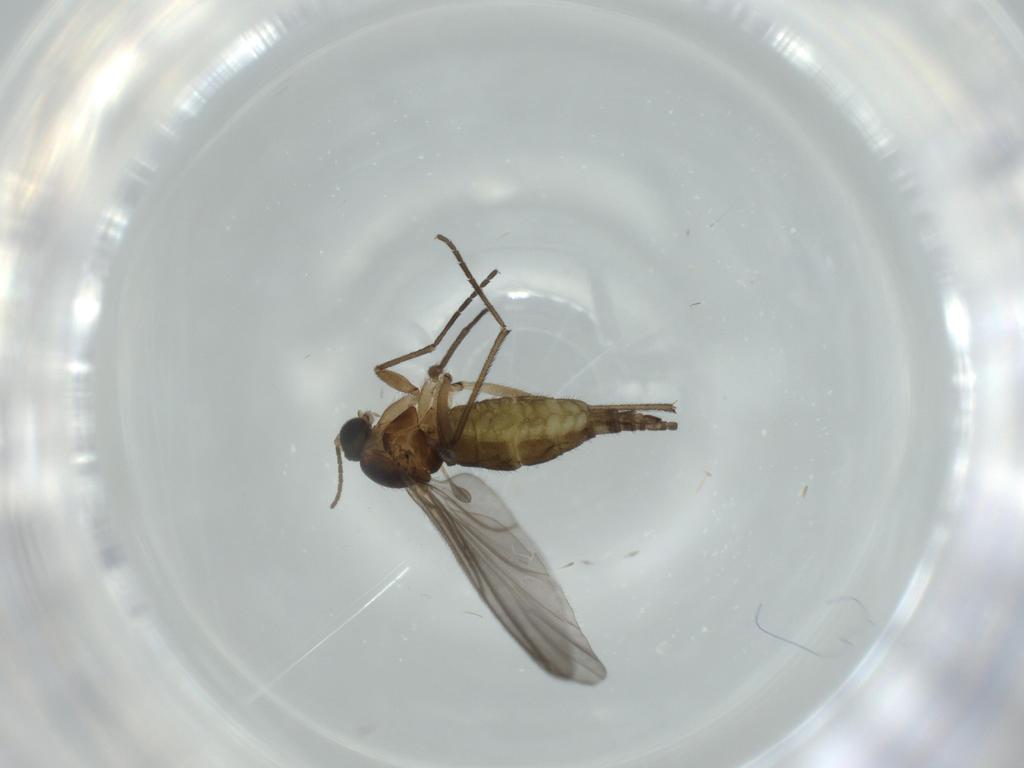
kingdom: Animalia
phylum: Arthropoda
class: Insecta
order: Diptera
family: Sciaridae
